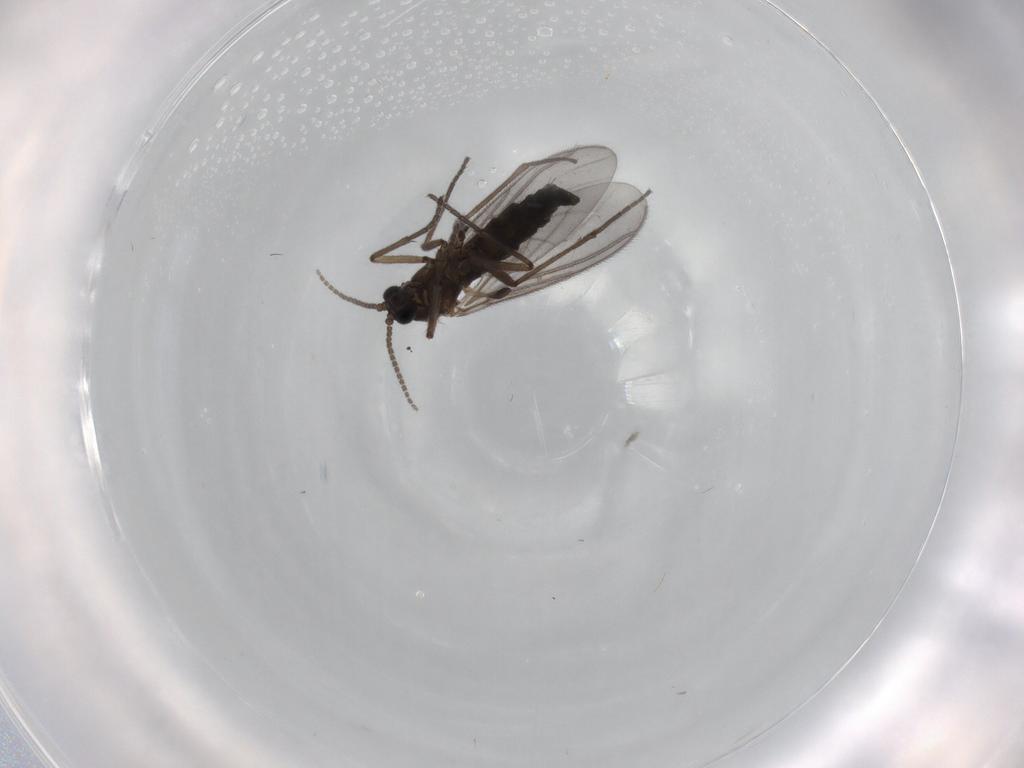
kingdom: Animalia
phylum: Arthropoda
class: Insecta
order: Diptera
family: Sciaridae
